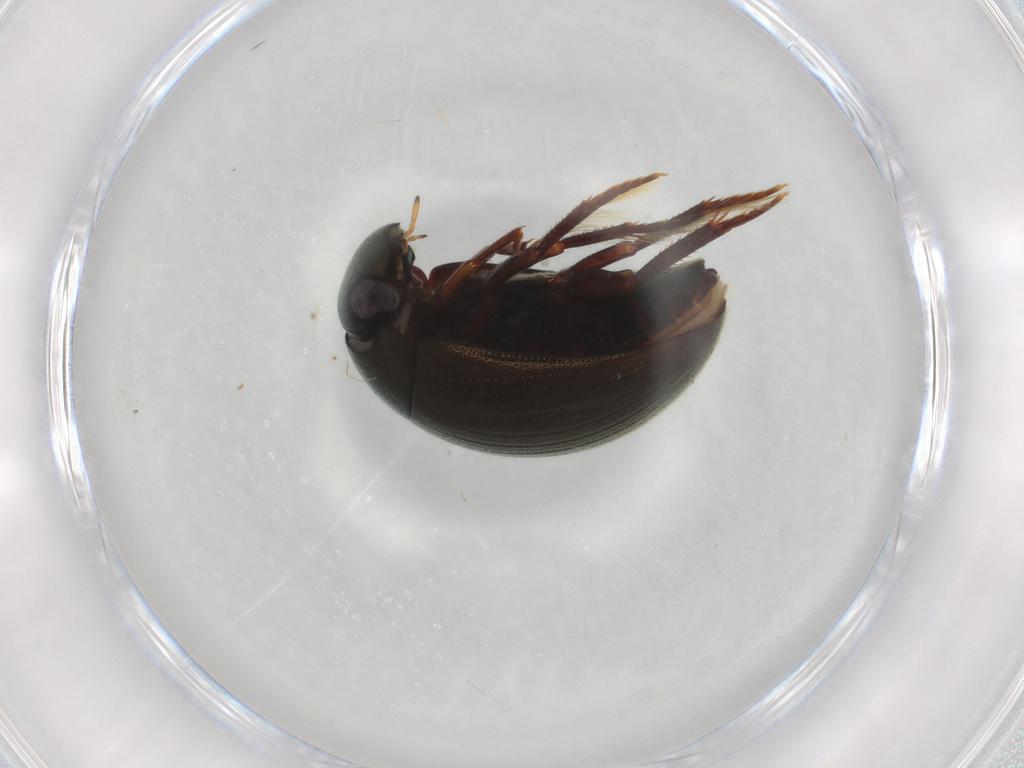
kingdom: Animalia
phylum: Arthropoda
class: Insecta
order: Coleoptera
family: Hydrophilidae
